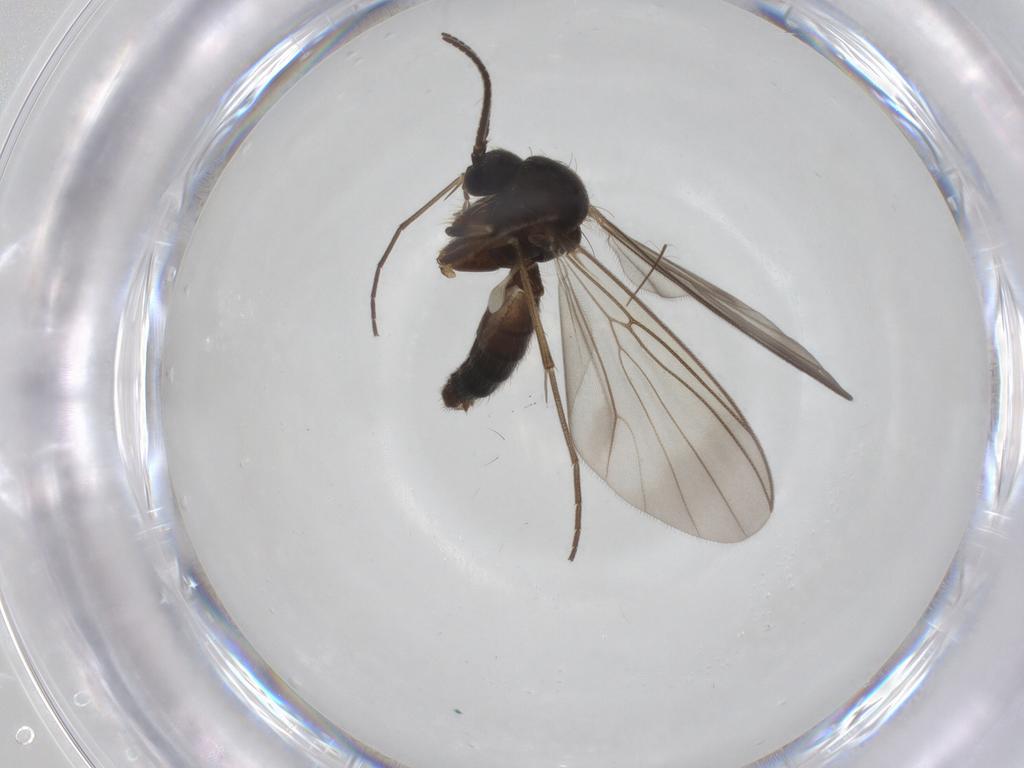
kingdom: Animalia
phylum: Arthropoda
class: Insecta
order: Diptera
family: Mycetophilidae
